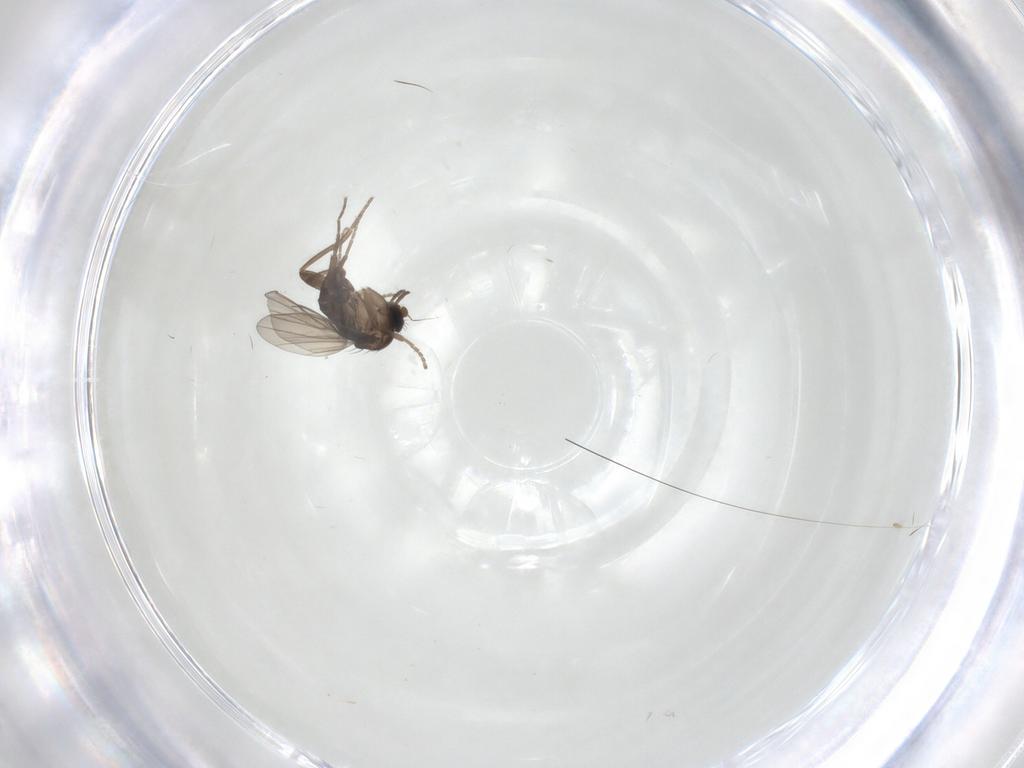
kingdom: Animalia
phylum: Arthropoda
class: Insecta
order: Diptera
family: Phoridae
